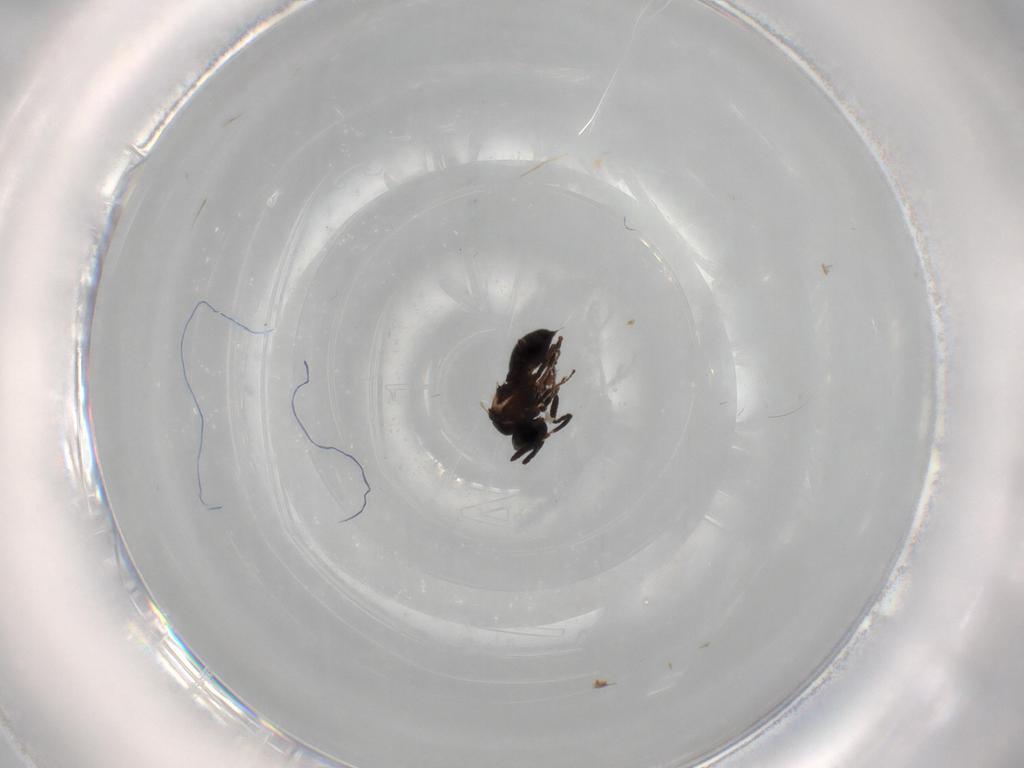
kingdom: Animalia
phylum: Arthropoda
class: Insecta
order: Hymenoptera
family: Scelionidae
